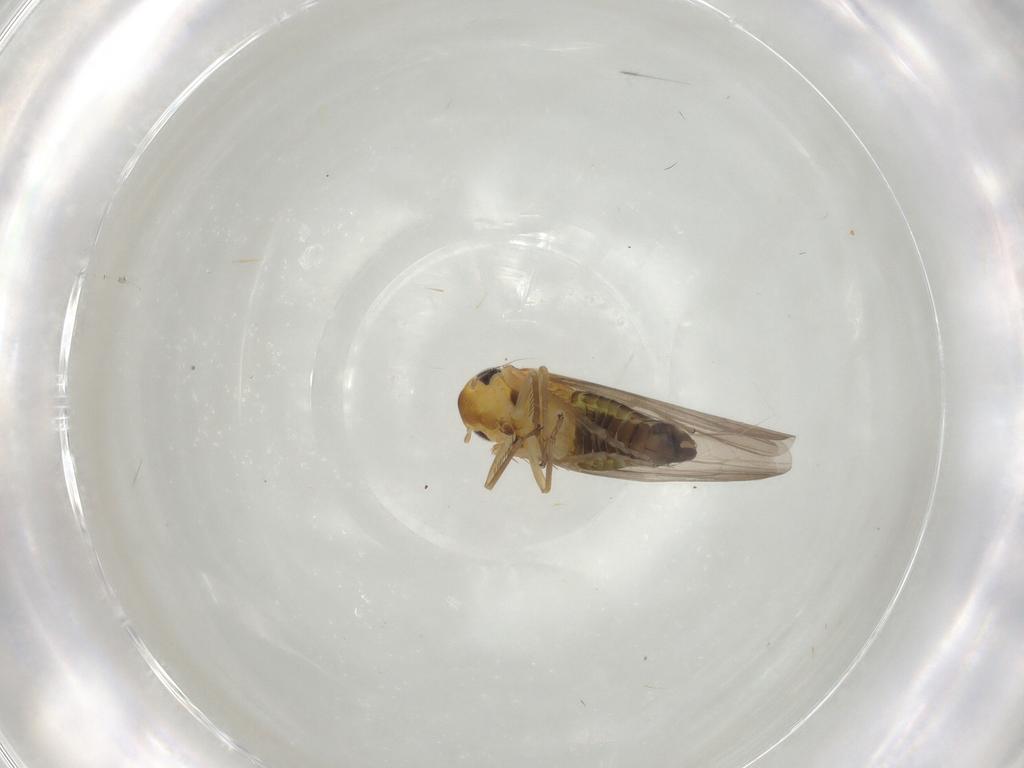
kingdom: Animalia
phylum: Arthropoda
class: Insecta
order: Hemiptera
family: Cicadellidae
